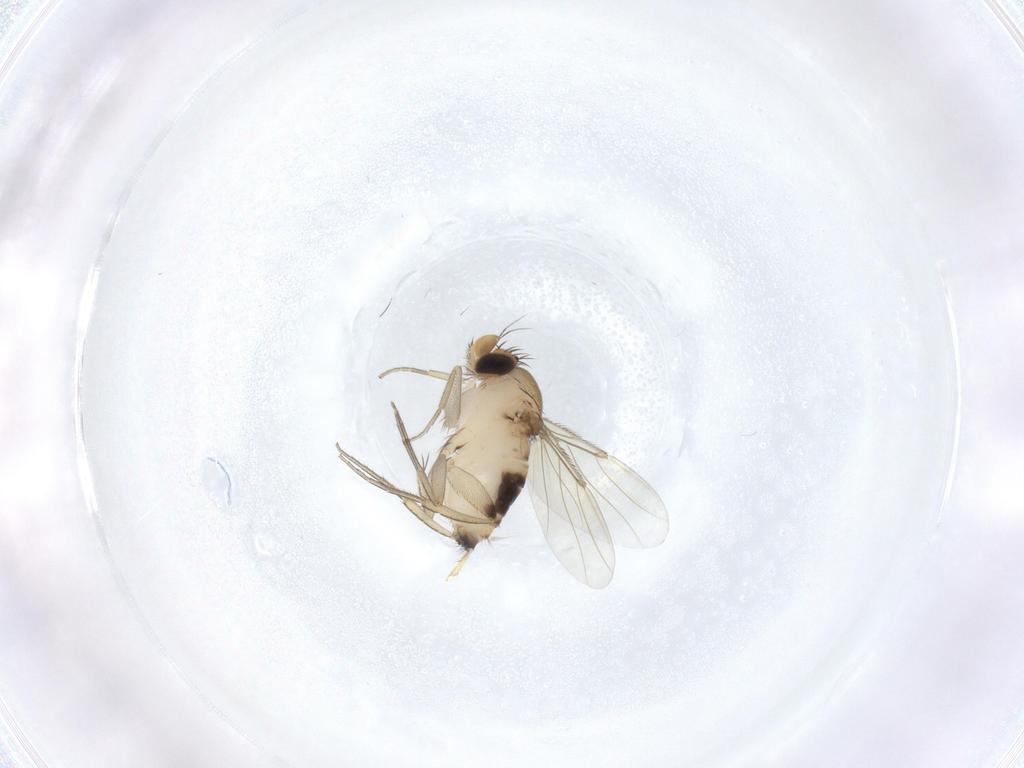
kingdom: Animalia
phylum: Arthropoda
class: Insecta
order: Diptera
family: Phoridae
